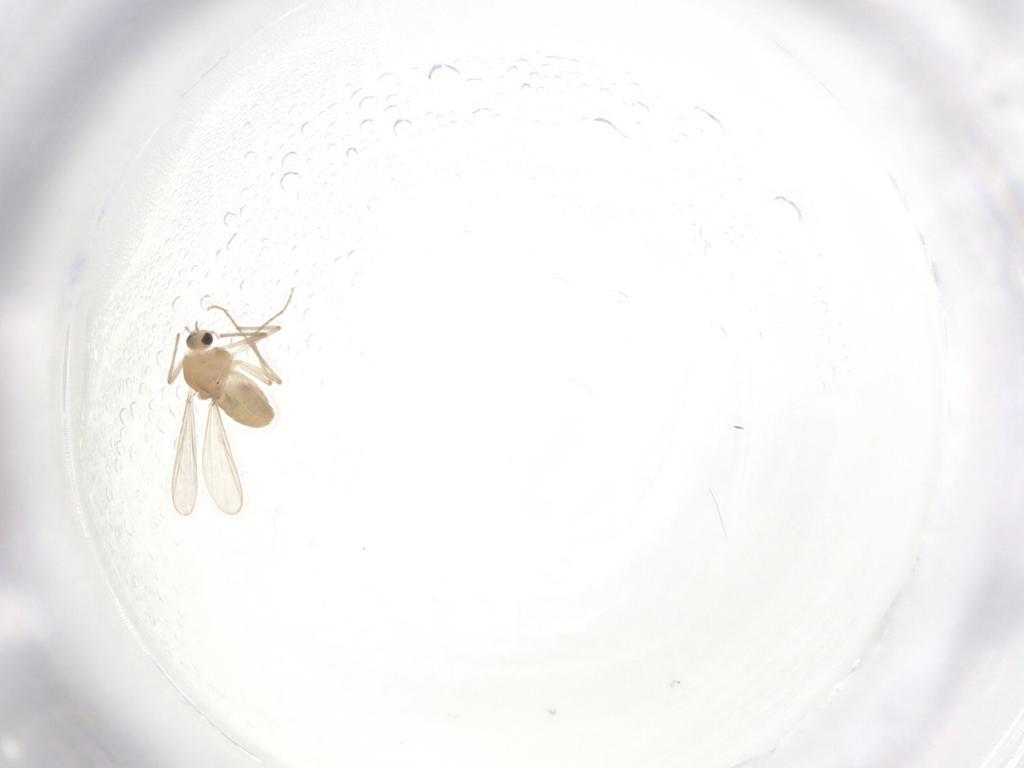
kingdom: Animalia
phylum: Arthropoda
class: Insecta
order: Diptera
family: Chironomidae
